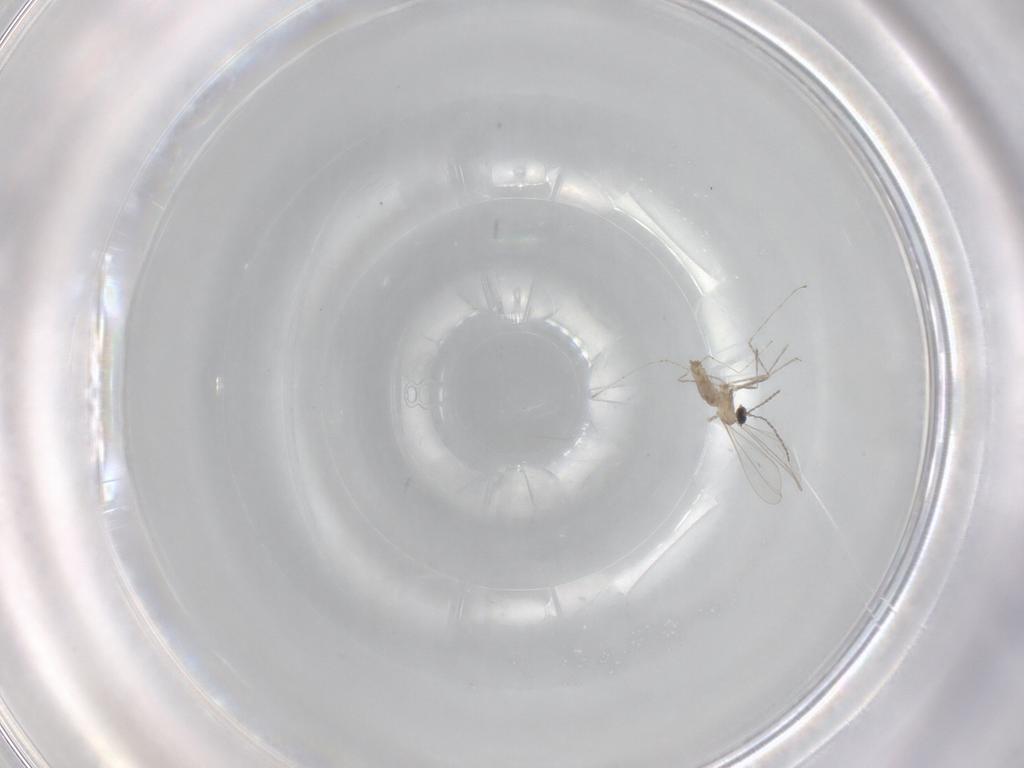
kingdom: Animalia
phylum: Arthropoda
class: Insecta
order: Diptera
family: Cecidomyiidae
